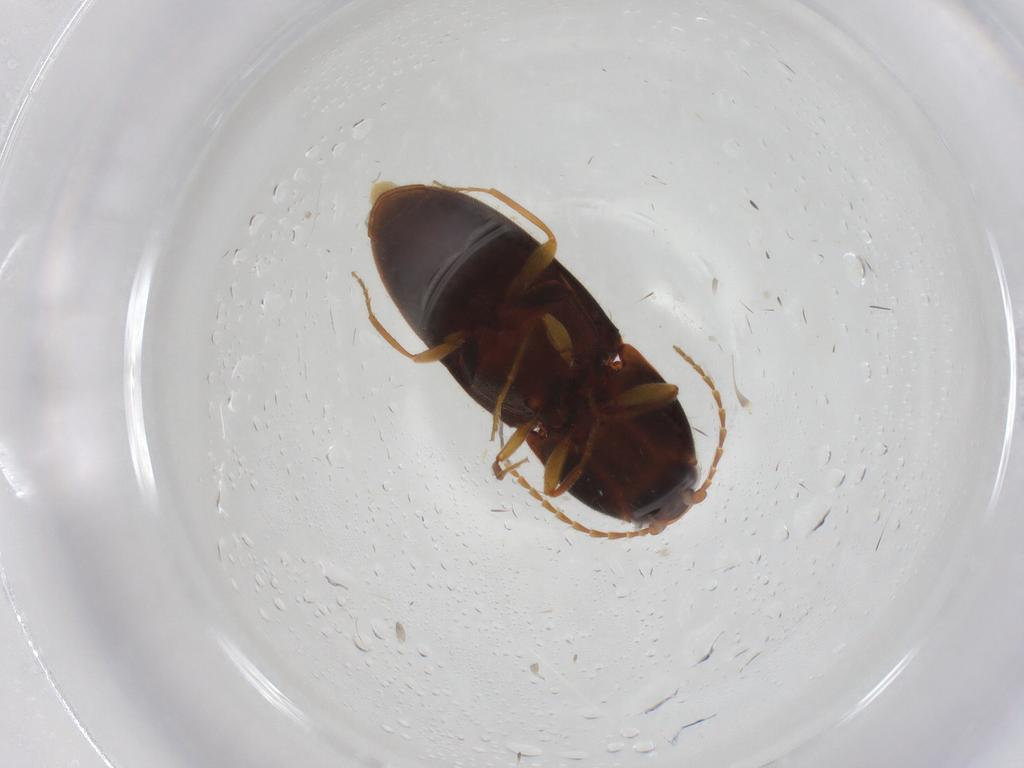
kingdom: Animalia
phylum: Arthropoda
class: Insecta
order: Coleoptera
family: Elateridae
